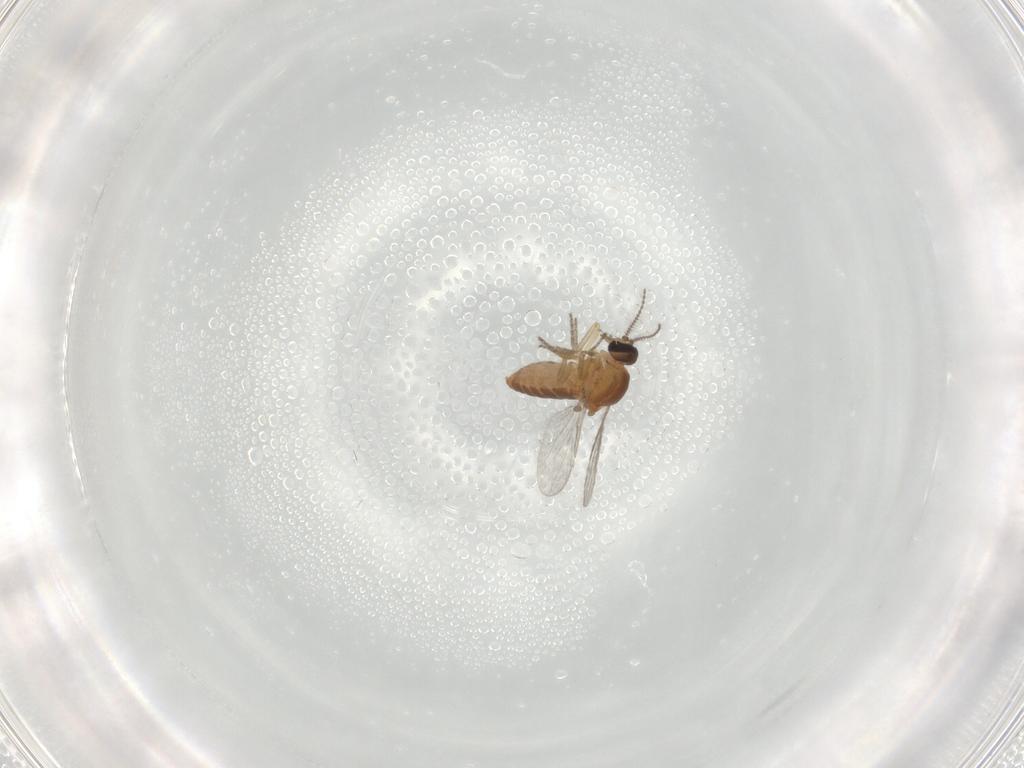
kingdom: Animalia
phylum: Arthropoda
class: Insecta
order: Diptera
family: Ceratopogonidae
